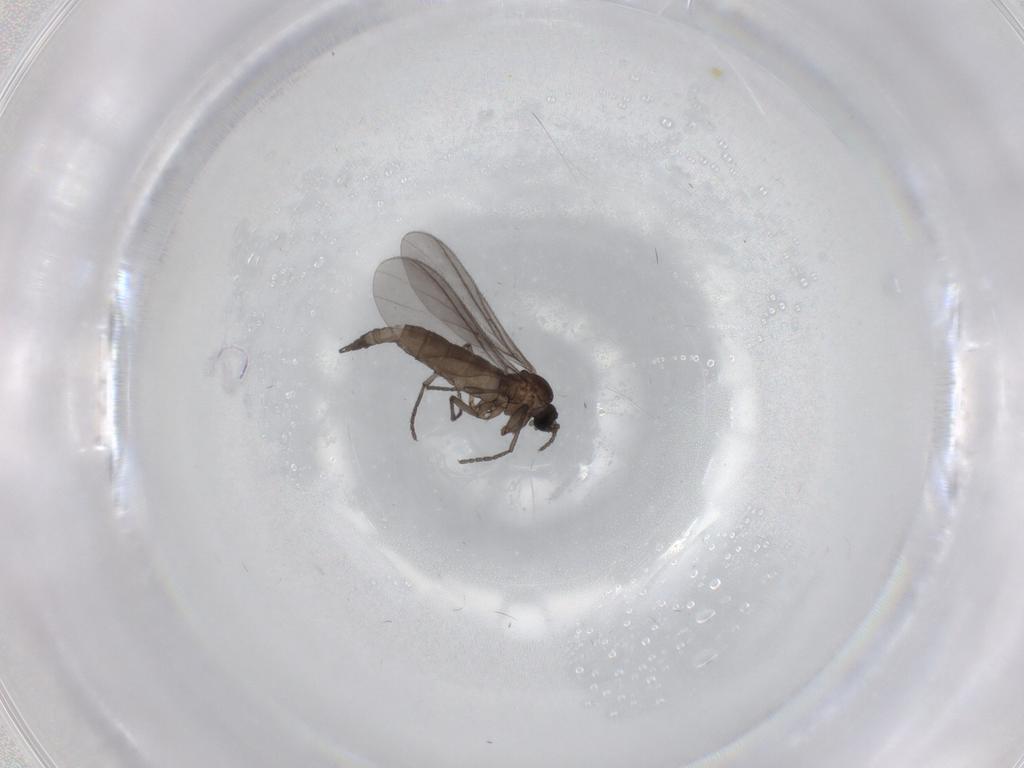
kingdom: Animalia
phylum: Arthropoda
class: Insecta
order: Diptera
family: Sciaridae
